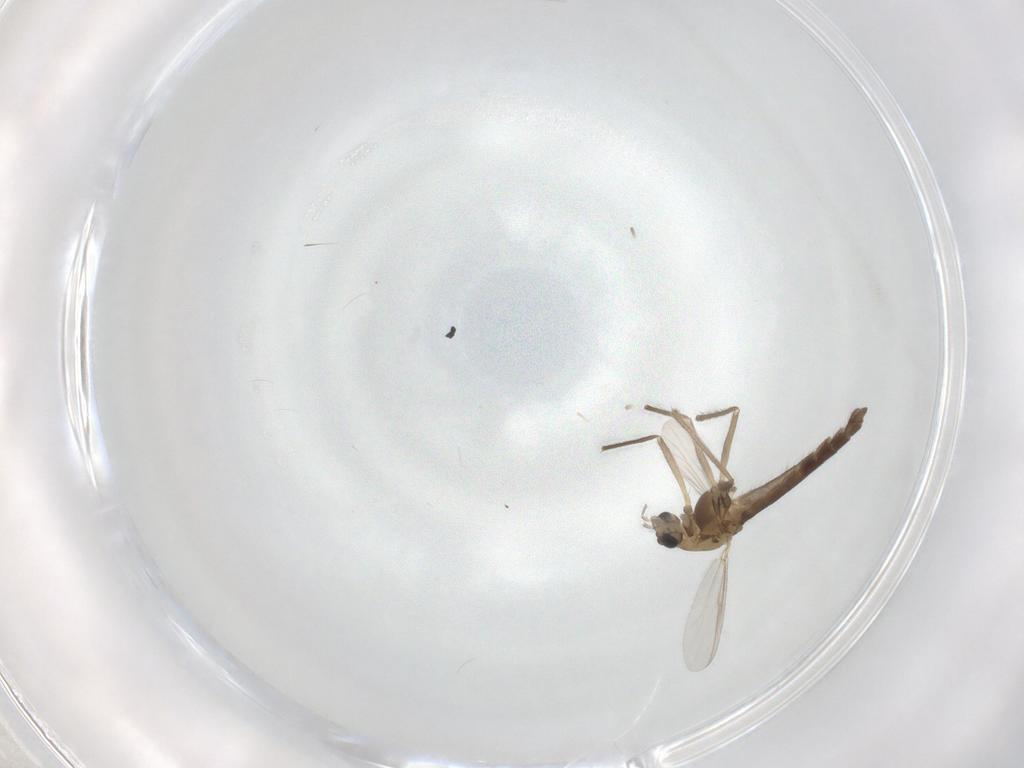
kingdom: Animalia
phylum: Arthropoda
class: Insecta
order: Diptera
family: Chironomidae
